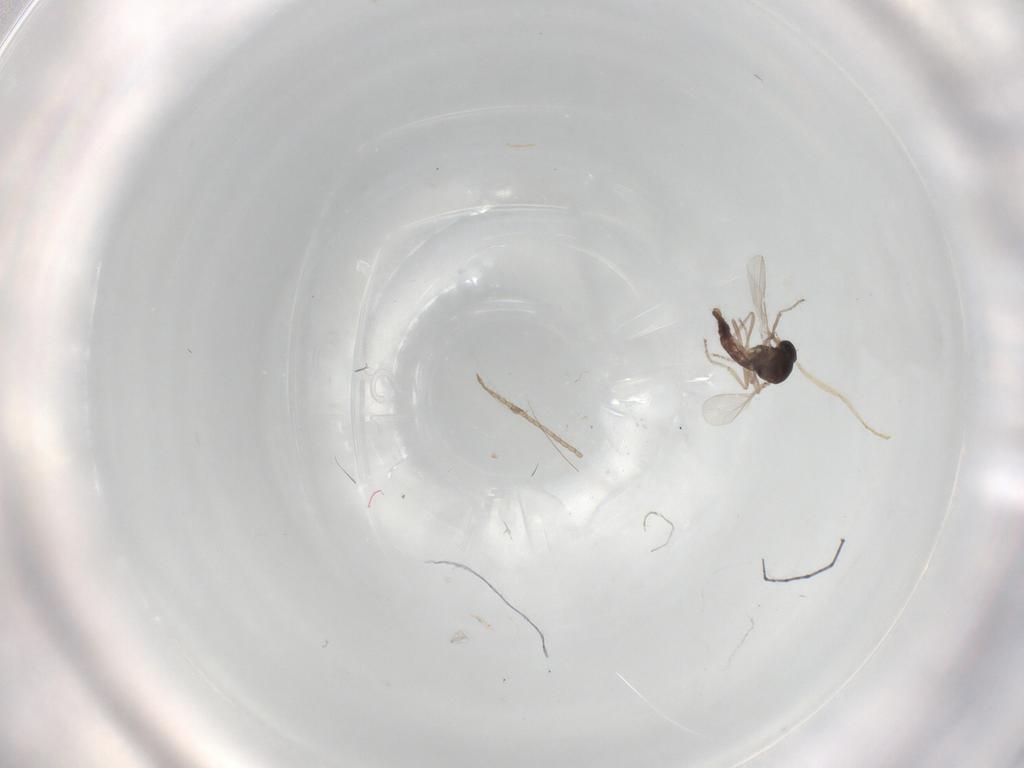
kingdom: Animalia
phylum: Arthropoda
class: Insecta
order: Diptera
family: Ceratopogonidae
